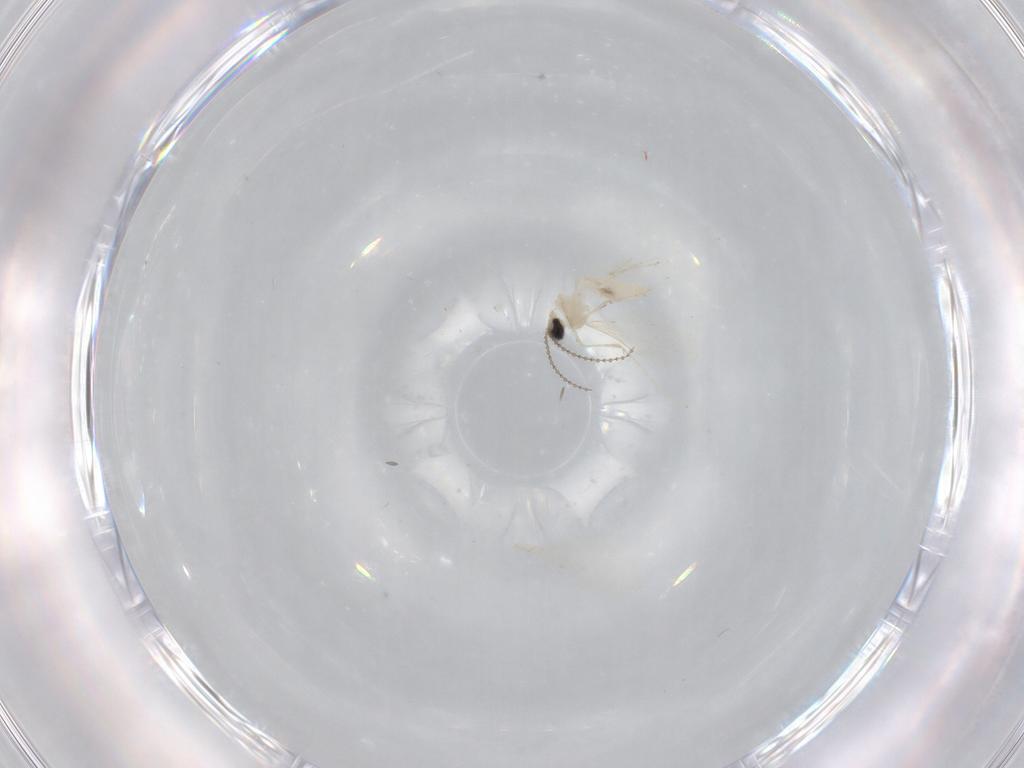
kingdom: Animalia
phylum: Arthropoda
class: Insecta
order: Diptera
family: Cecidomyiidae
